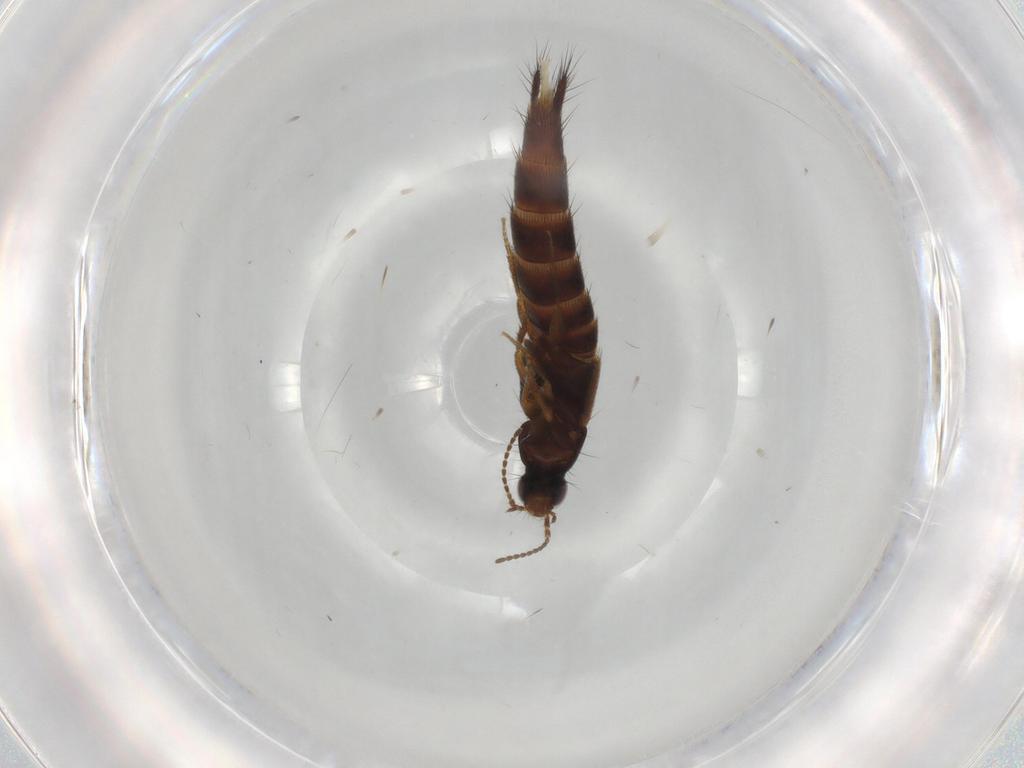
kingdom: Animalia
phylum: Arthropoda
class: Insecta
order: Coleoptera
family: Staphylinidae
